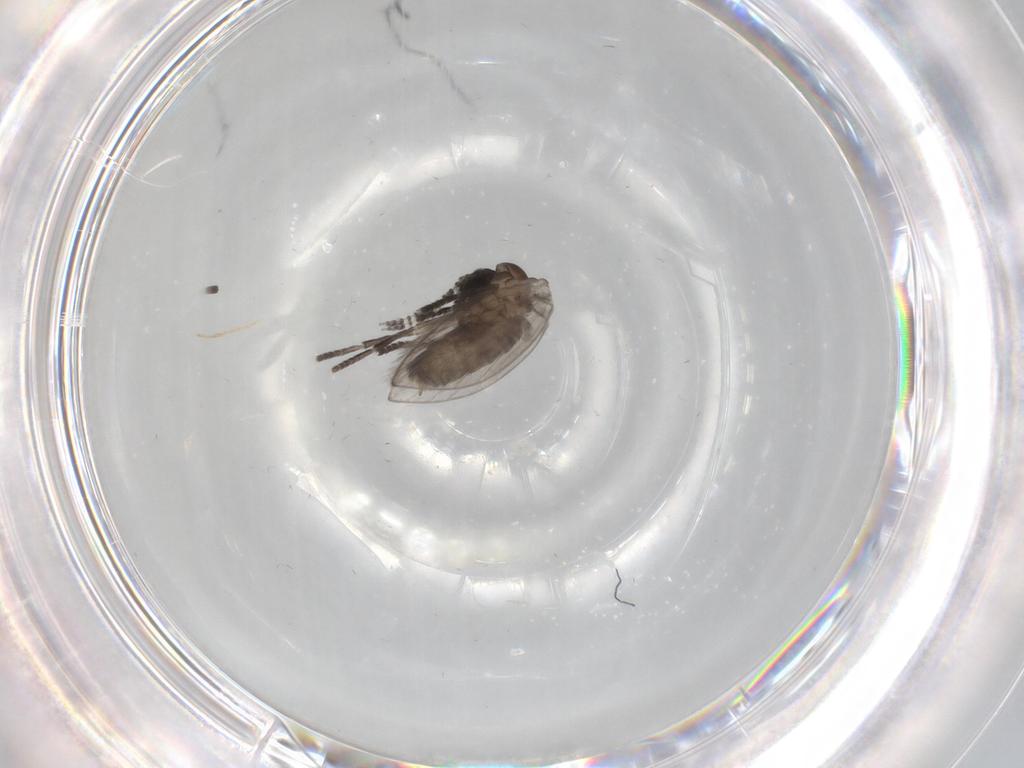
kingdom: Animalia
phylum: Arthropoda
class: Insecta
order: Diptera
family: Psychodidae
